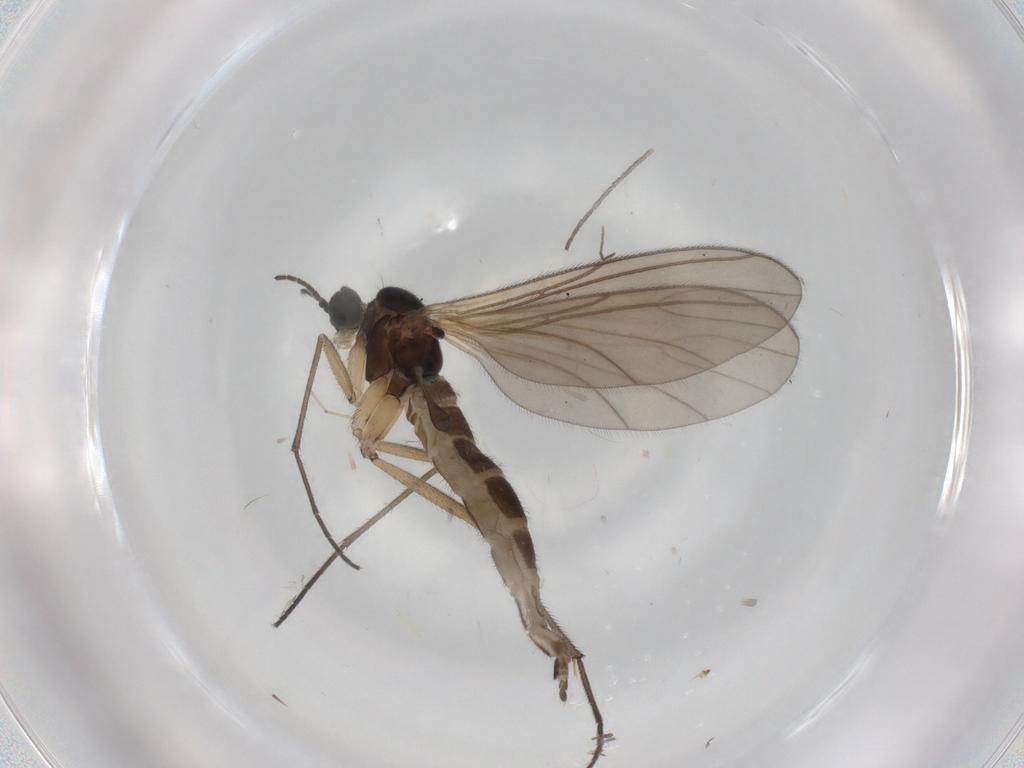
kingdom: Animalia
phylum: Arthropoda
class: Insecta
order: Diptera
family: Sciaridae
